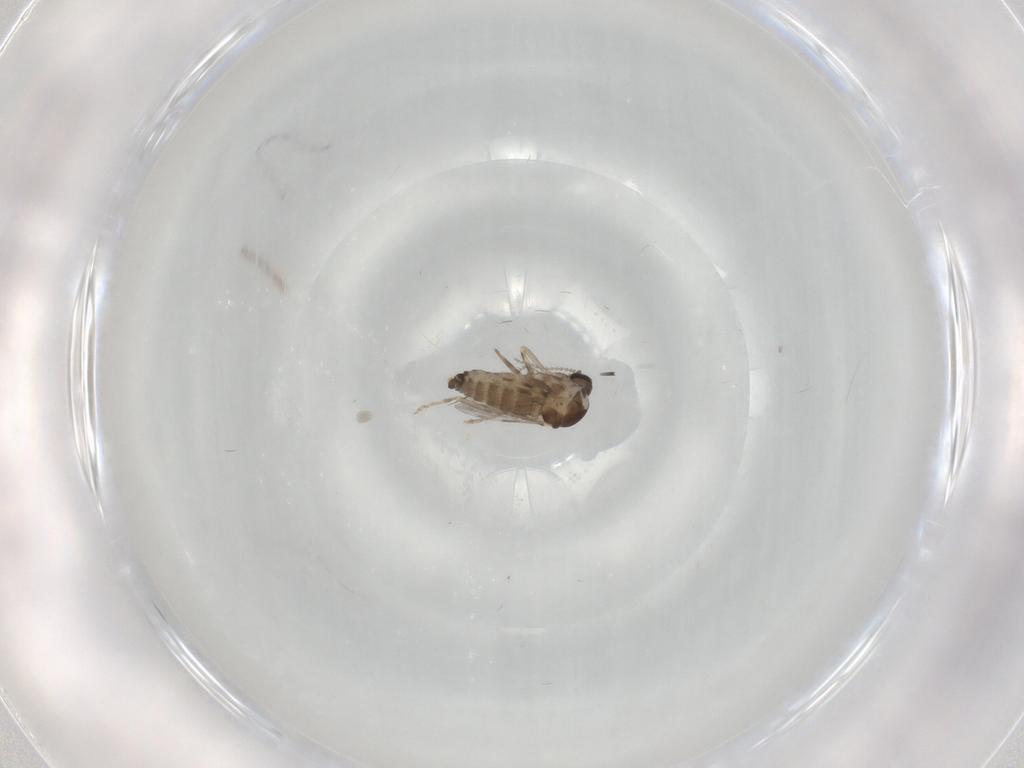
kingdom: Animalia
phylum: Arthropoda
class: Insecta
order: Diptera
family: Ceratopogonidae
